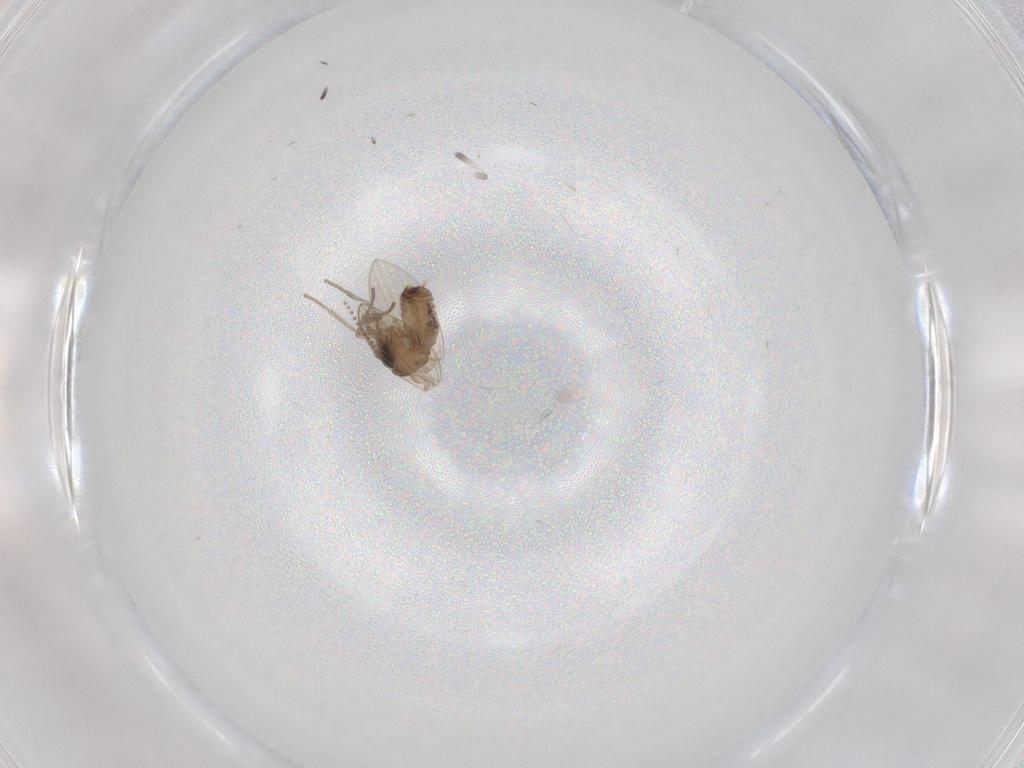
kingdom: Animalia
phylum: Arthropoda
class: Insecta
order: Diptera
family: Psychodidae
